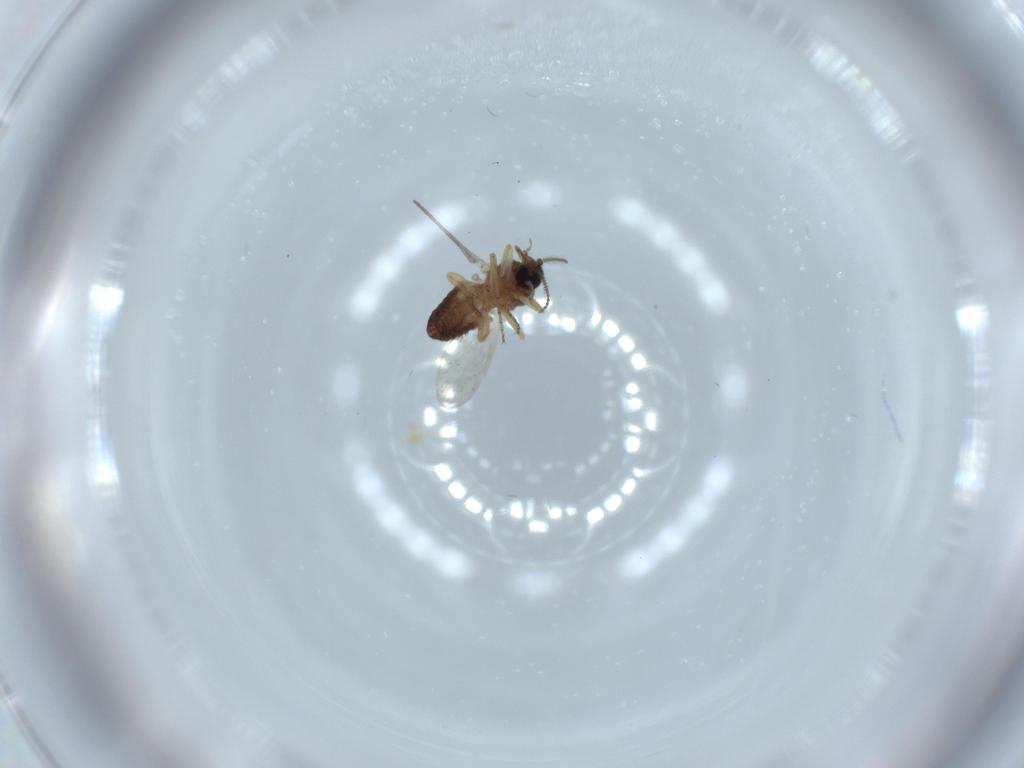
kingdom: Animalia
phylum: Arthropoda
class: Insecta
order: Diptera
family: Ceratopogonidae
